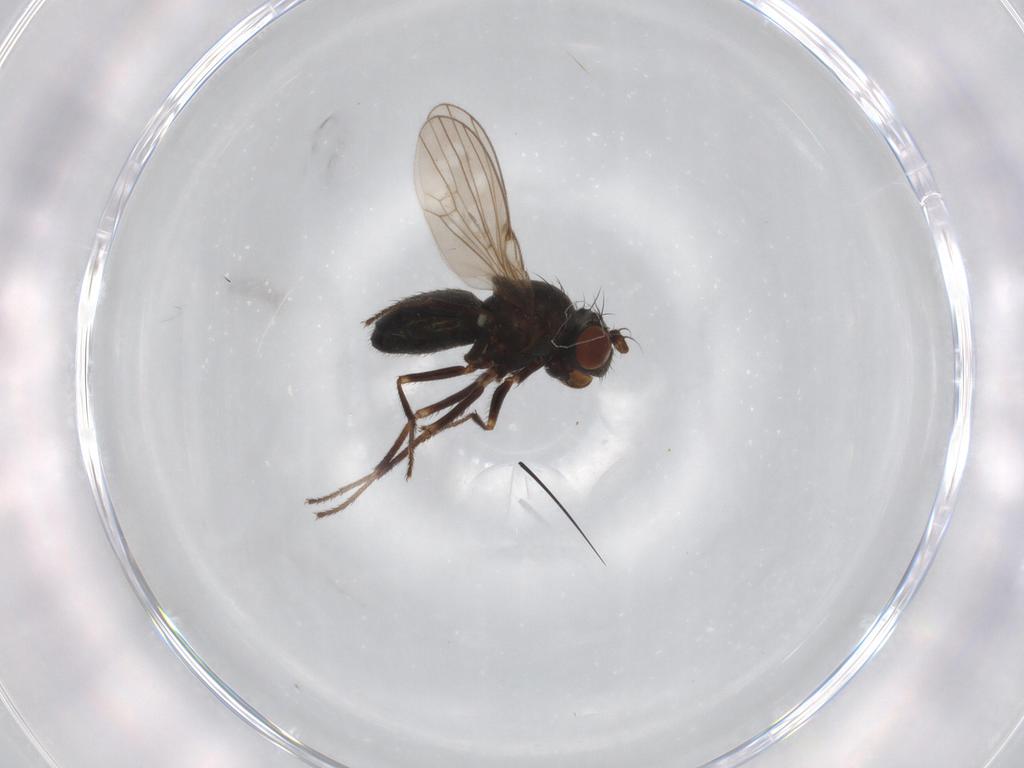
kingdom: Animalia
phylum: Arthropoda
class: Insecta
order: Diptera
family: Ephydridae
